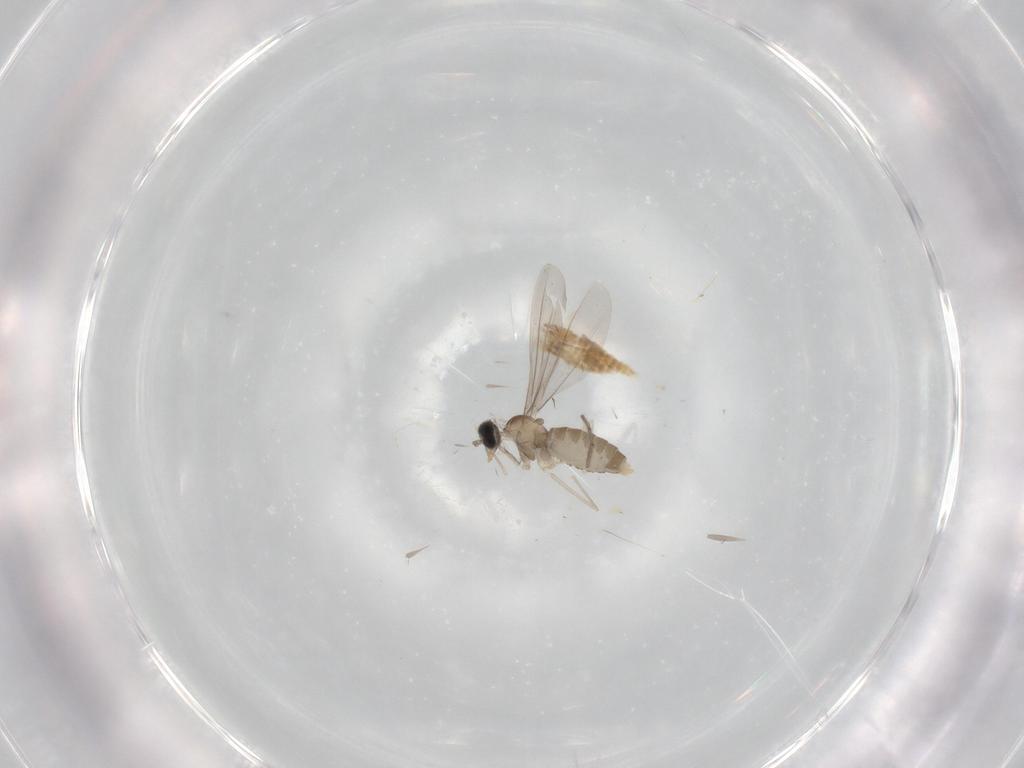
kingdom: Animalia
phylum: Arthropoda
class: Insecta
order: Diptera
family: Cecidomyiidae
